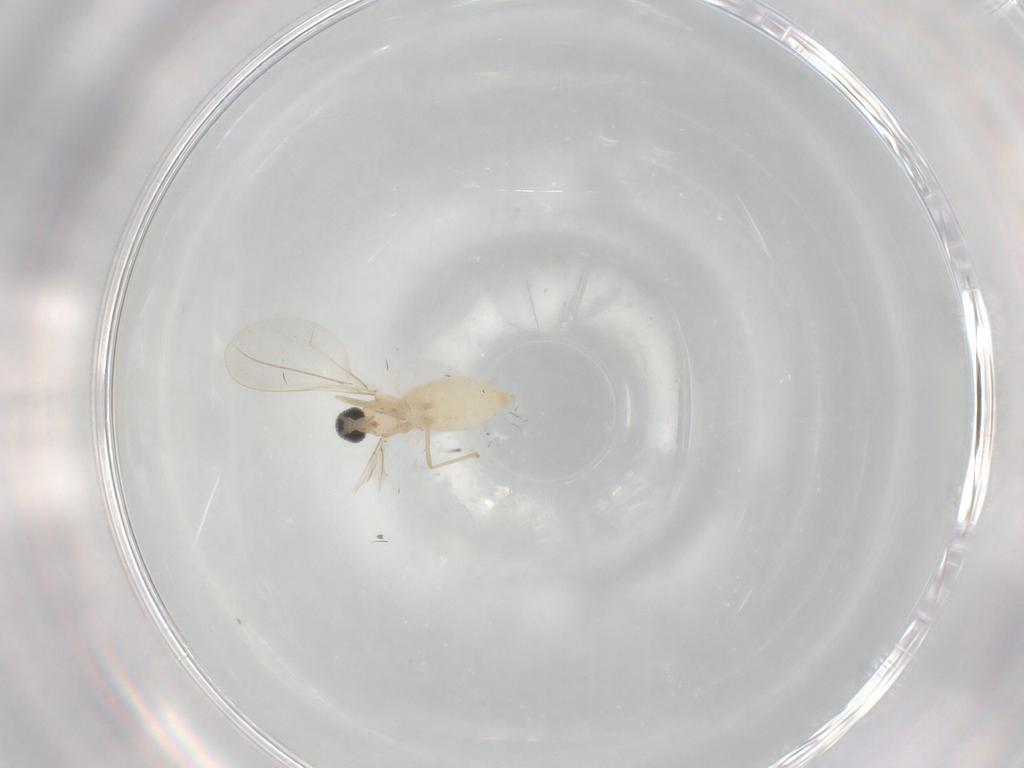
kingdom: Animalia
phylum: Arthropoda
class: Insecta
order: Diptera
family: Cecidomyiidae
